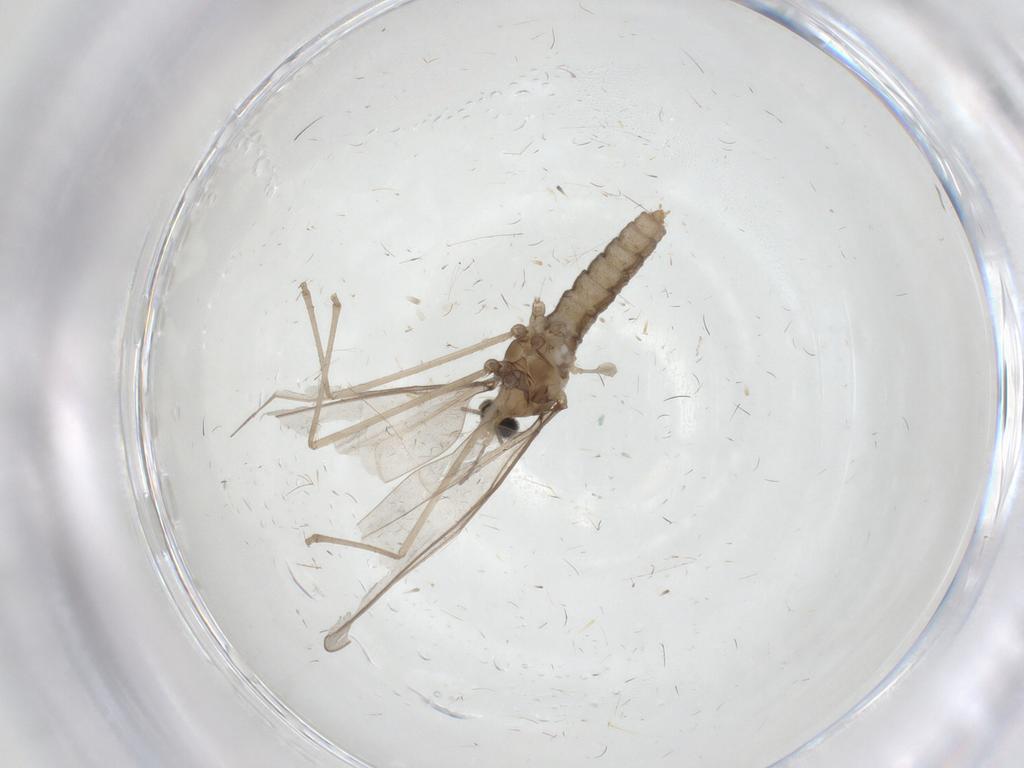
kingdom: Animalia
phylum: Arthropoda
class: Insecta
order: Diptera
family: Cecidomyiidae
